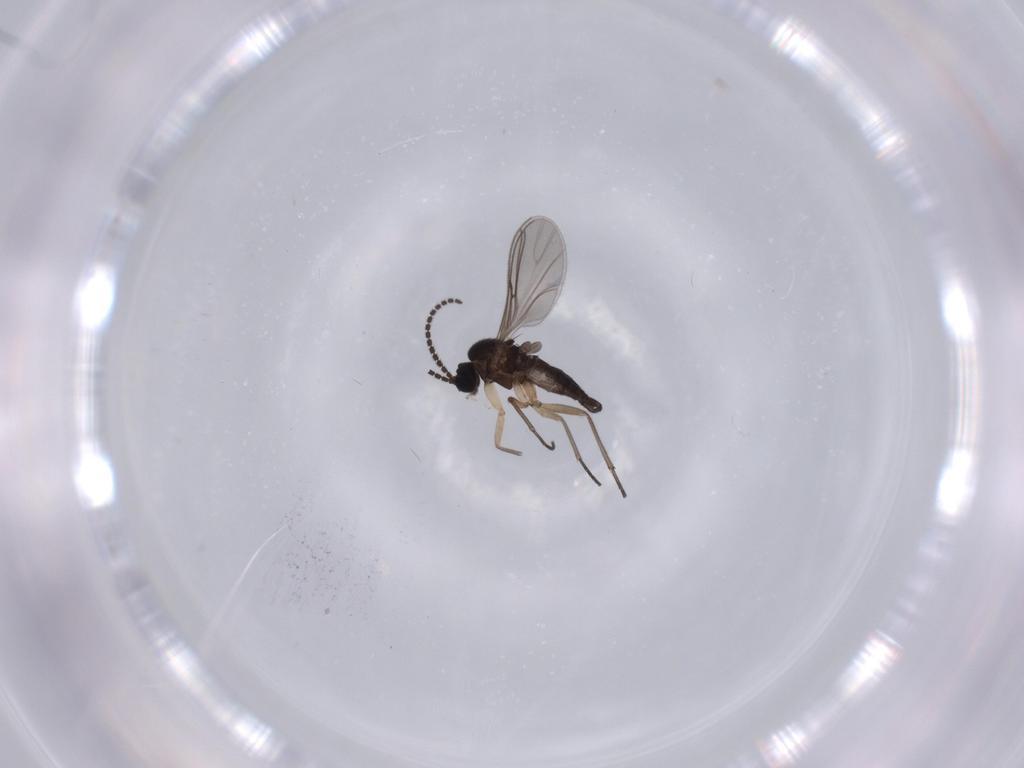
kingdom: Animalia
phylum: Arthropoda
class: Insecta
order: Diptera
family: Sciaridae
